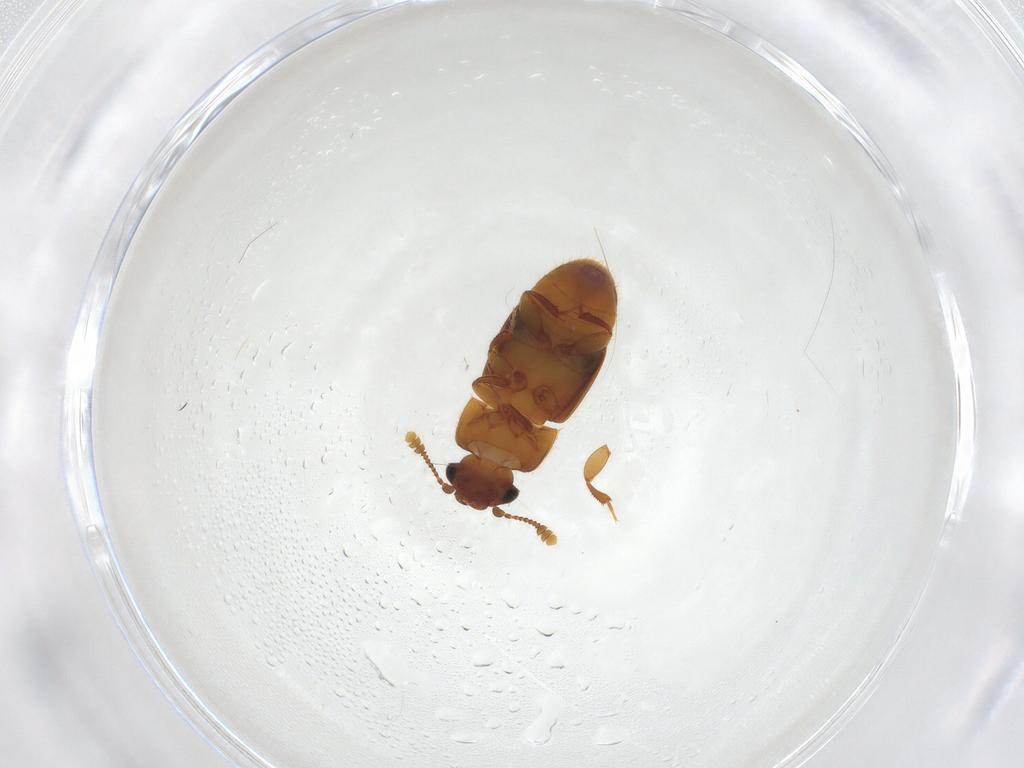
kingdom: Animalia
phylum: Arthropoda
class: Insecta
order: Coleoptera
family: Nitidulidae
